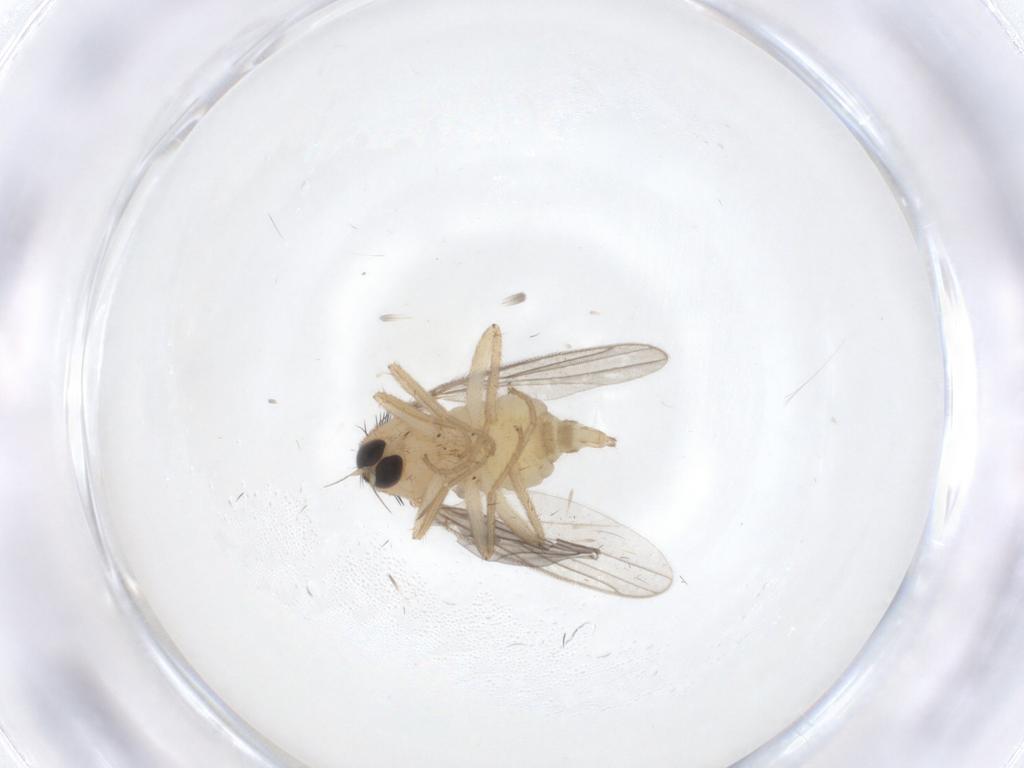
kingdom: Animalia
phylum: Arthropoda
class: Insecta
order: Diptera
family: Hybotidae
